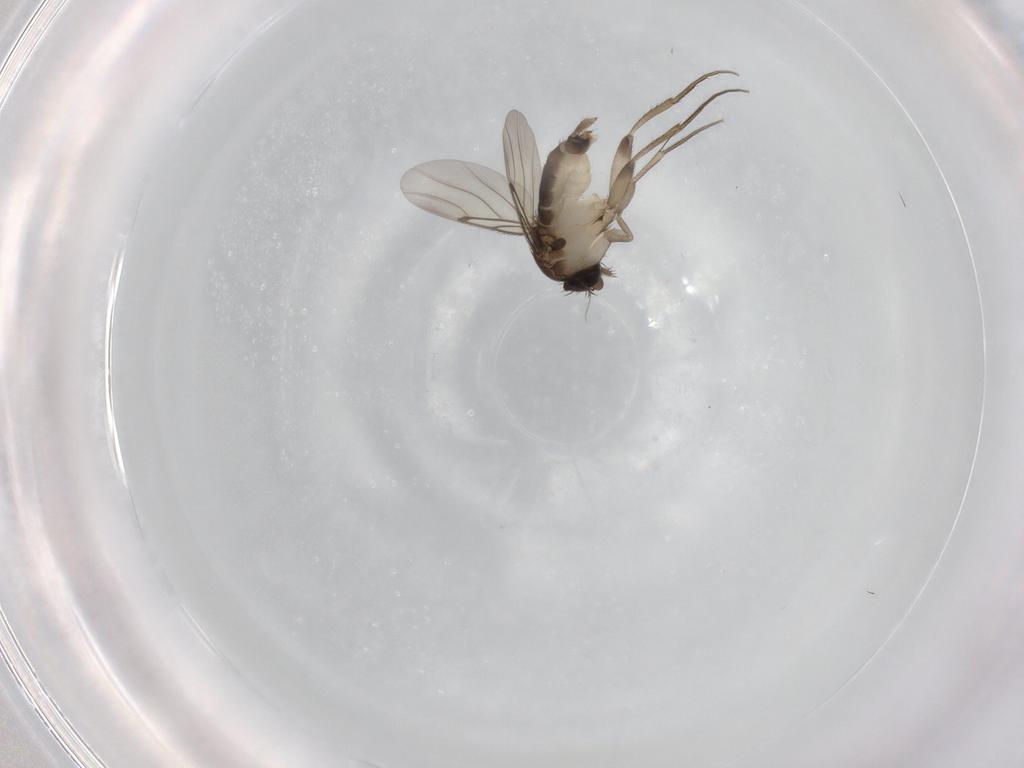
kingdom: Animalia
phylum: Arthropoda
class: Insecta
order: Diptera
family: Phoridae
